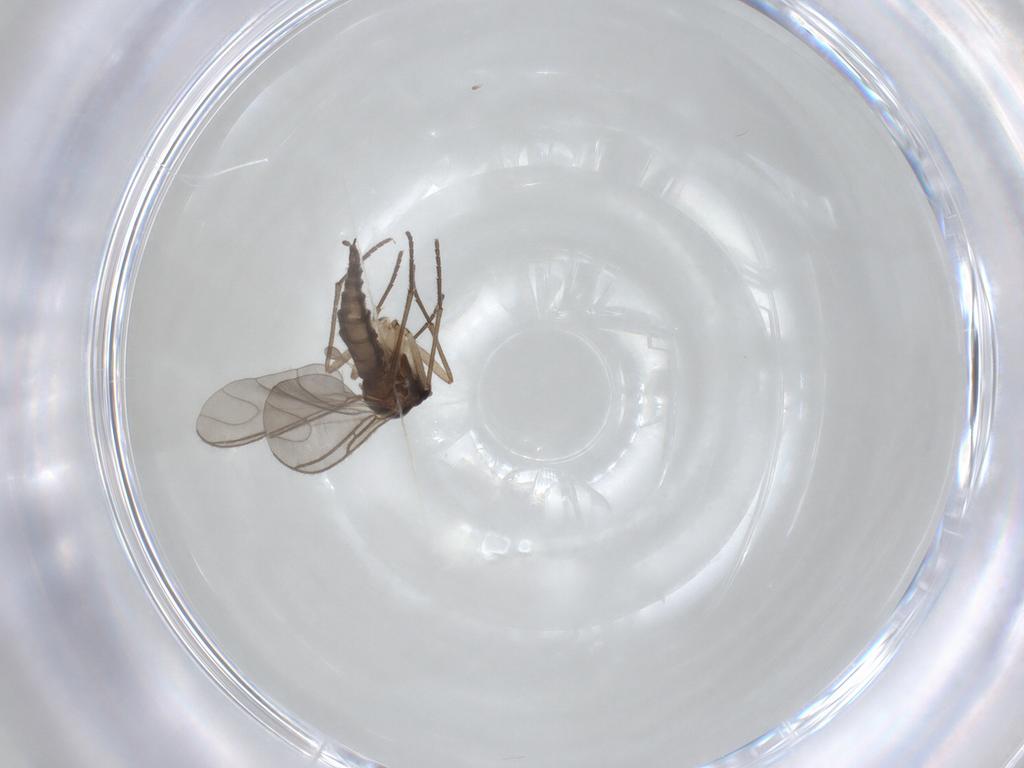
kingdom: Animalia
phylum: Arthropoda
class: Insecta
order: Diptera
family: Sciaridae
